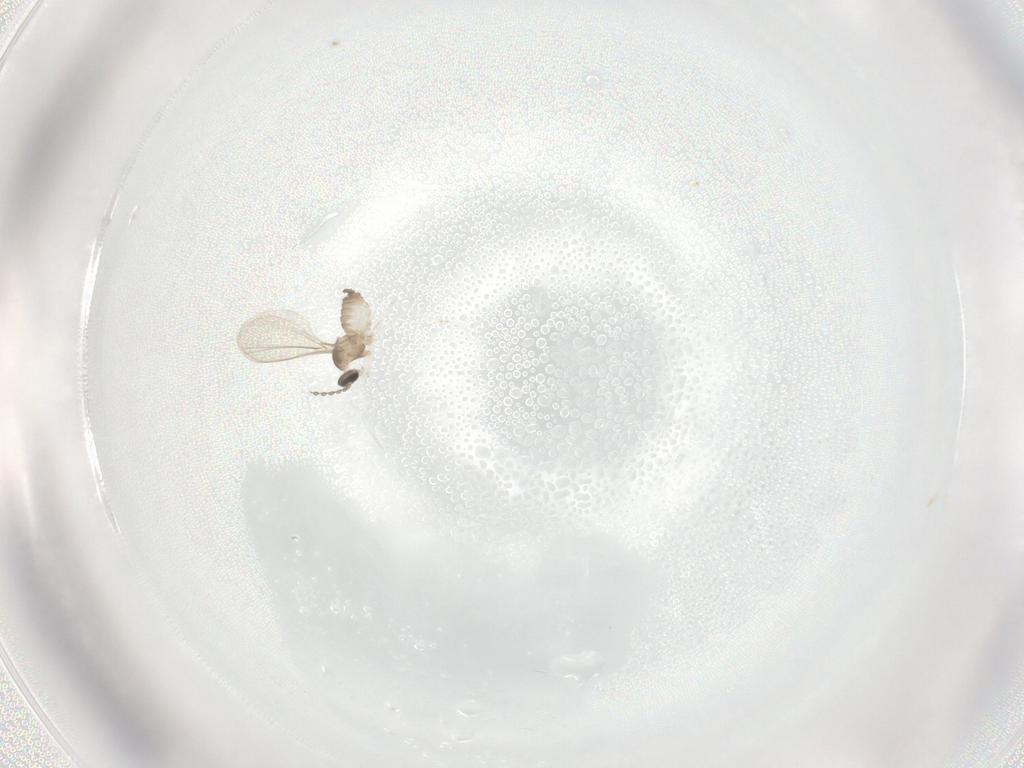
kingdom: Animalia
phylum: Arthropoda
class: Insecta
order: Diptera
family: Cecidomyiidae
